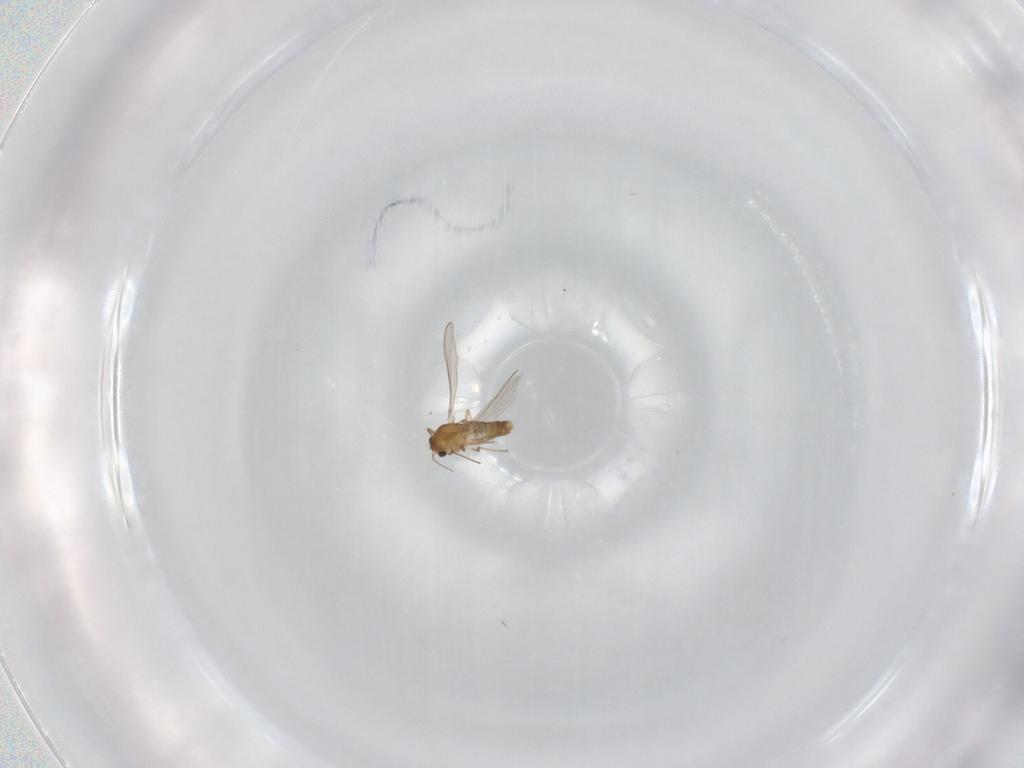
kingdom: Animalia
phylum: Arthropoda
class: Insecta
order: Diptera
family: Chironomidae
